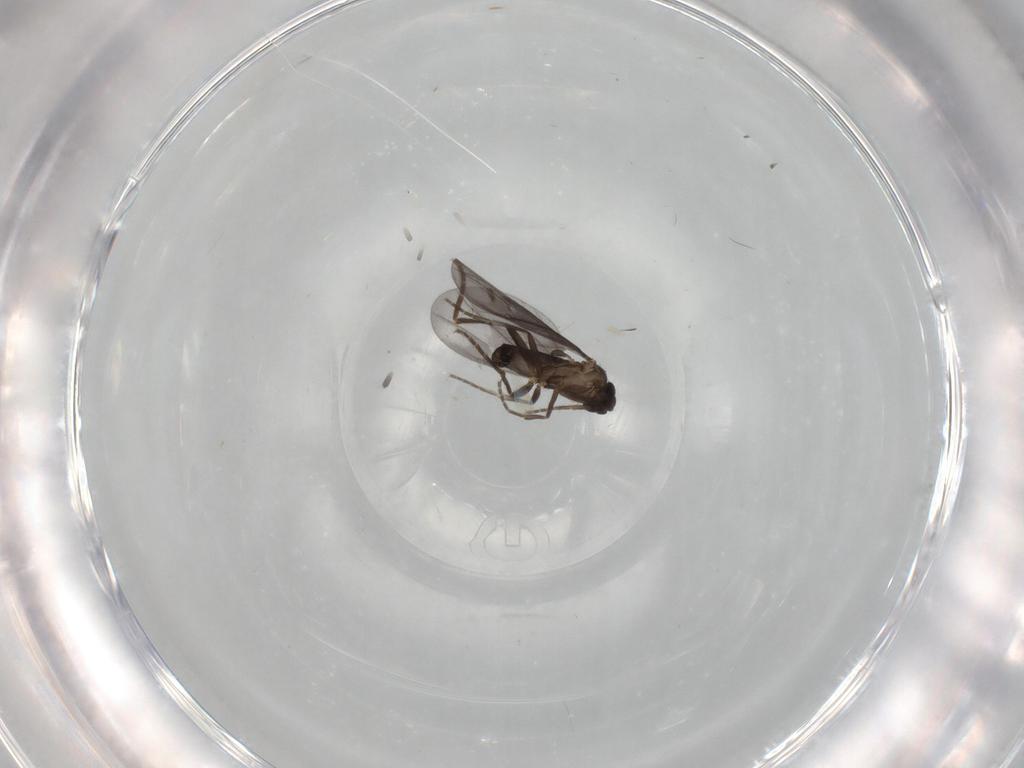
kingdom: Animalia
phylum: Arthropoda
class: Insecta
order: Diptera
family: Phoridae
